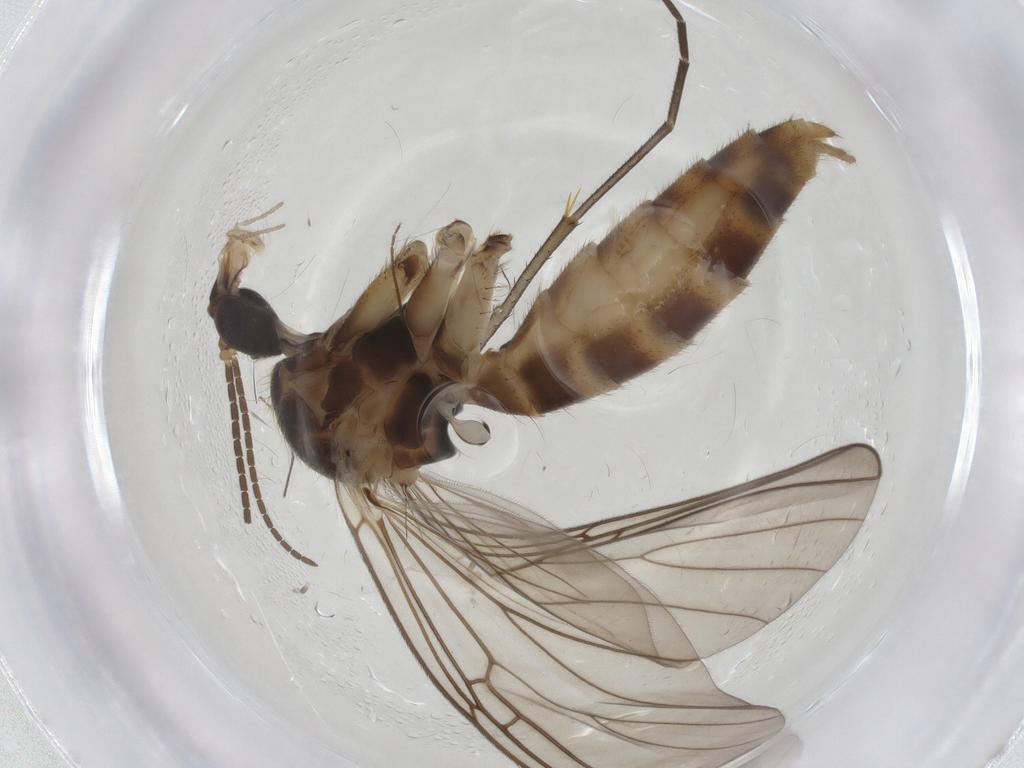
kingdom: Animalia
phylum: Arthropoda
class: Insecta
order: Diptera
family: Mycetophilidae
